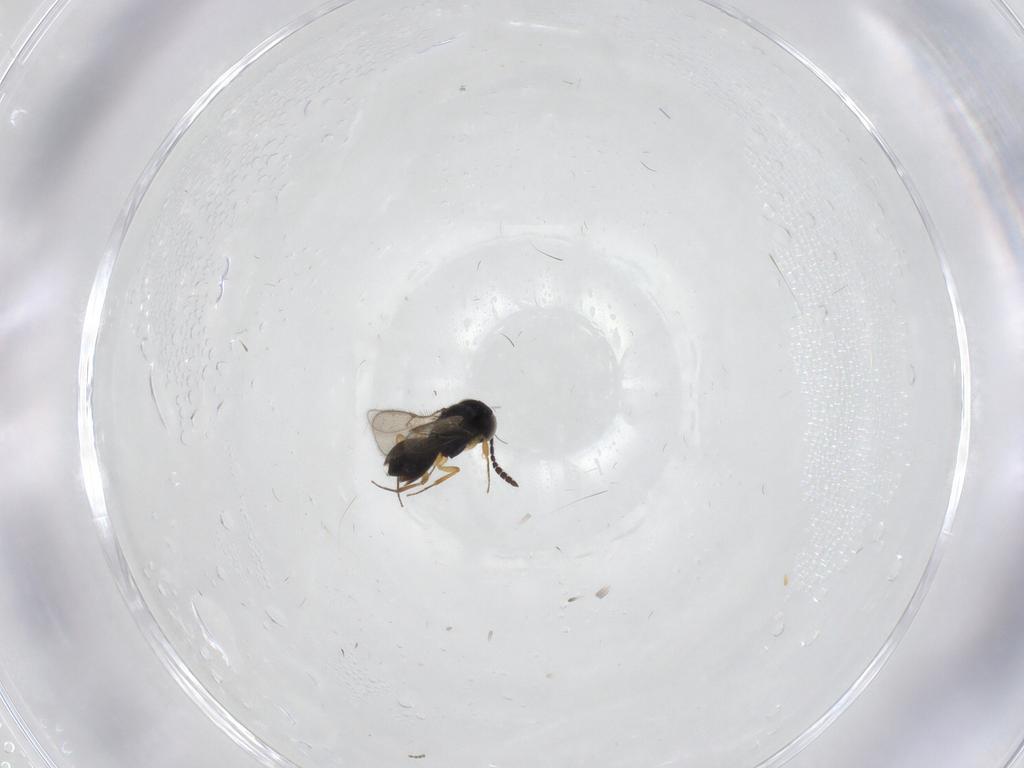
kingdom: Animalia
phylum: Arthropoda
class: Insecta
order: Hymenoptera
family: Scelionidae
